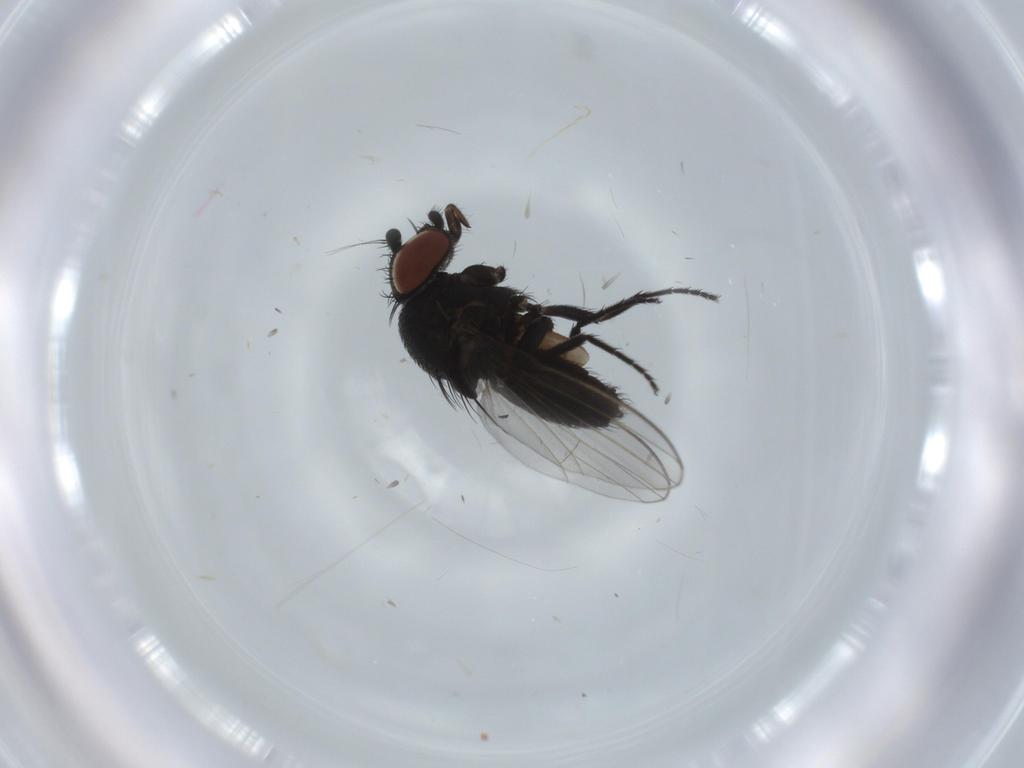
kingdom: Animalia
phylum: Arthropoda
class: Insecta
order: Diptera
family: Milichiidae
